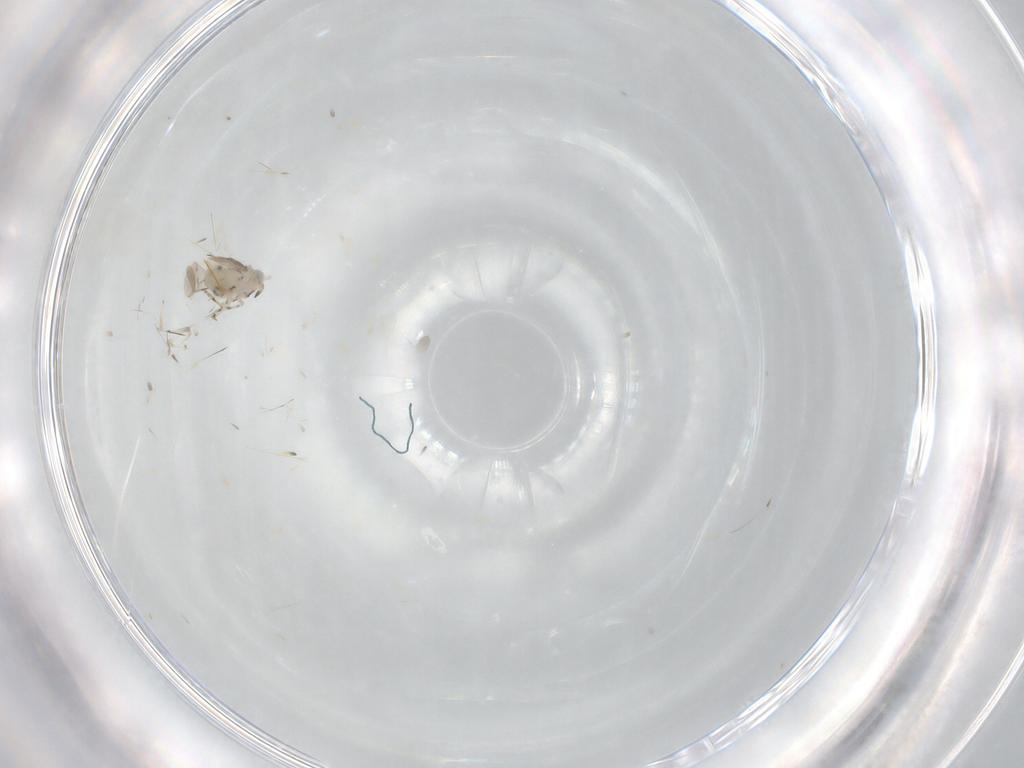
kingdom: Animalia
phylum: Arthropoda
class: Insecta
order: Hymenoptera
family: Aphelinidae
